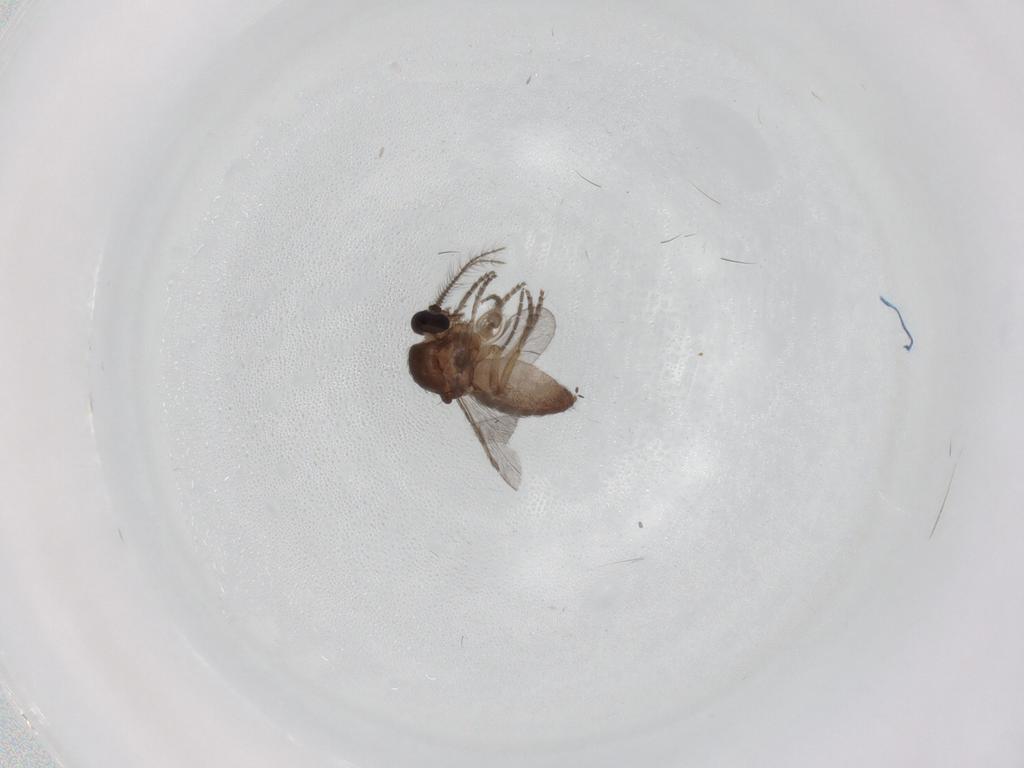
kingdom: Animalia
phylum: Arthropoda
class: Insecta
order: Diptera
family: Ceratopogonidae
